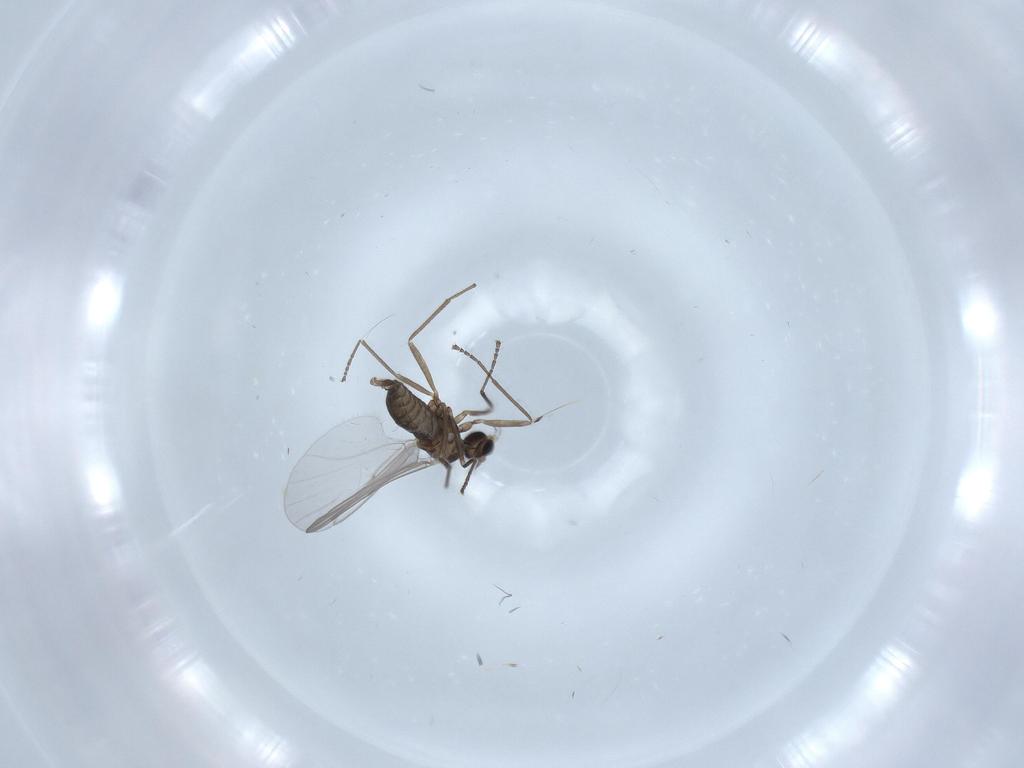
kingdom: Animalia
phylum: Arthropoda
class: Insecta
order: Diptera
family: Cecidomyiidae
